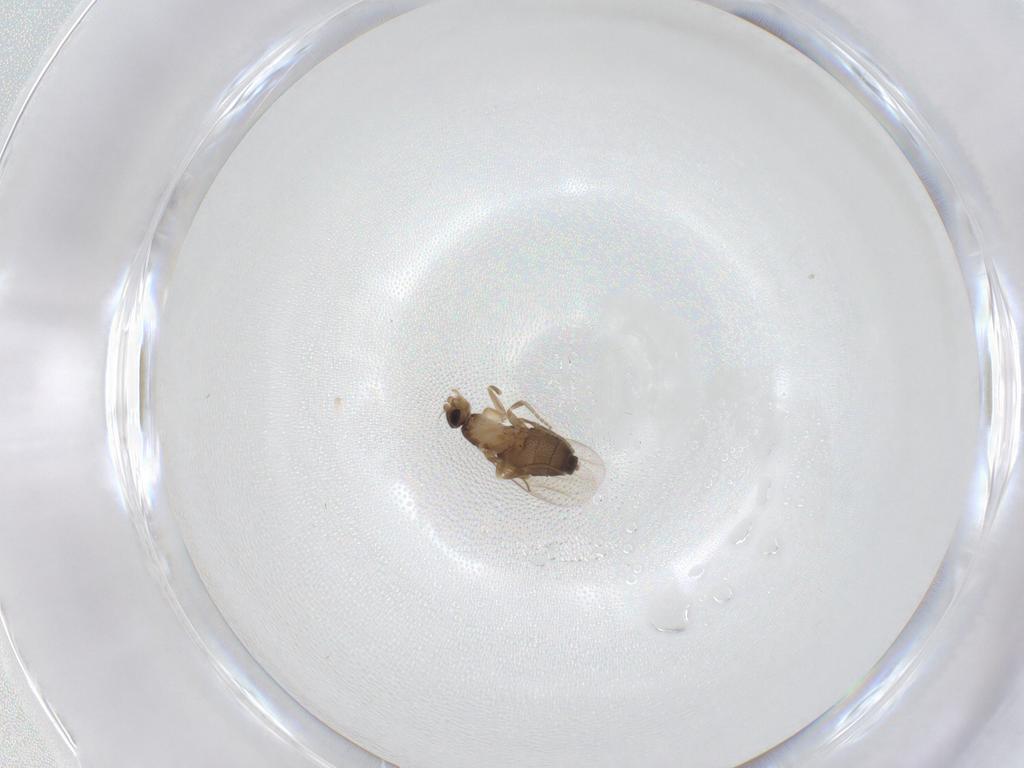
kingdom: Animalia
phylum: Arthropoda
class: Insecta
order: Diptera
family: Phoridae
